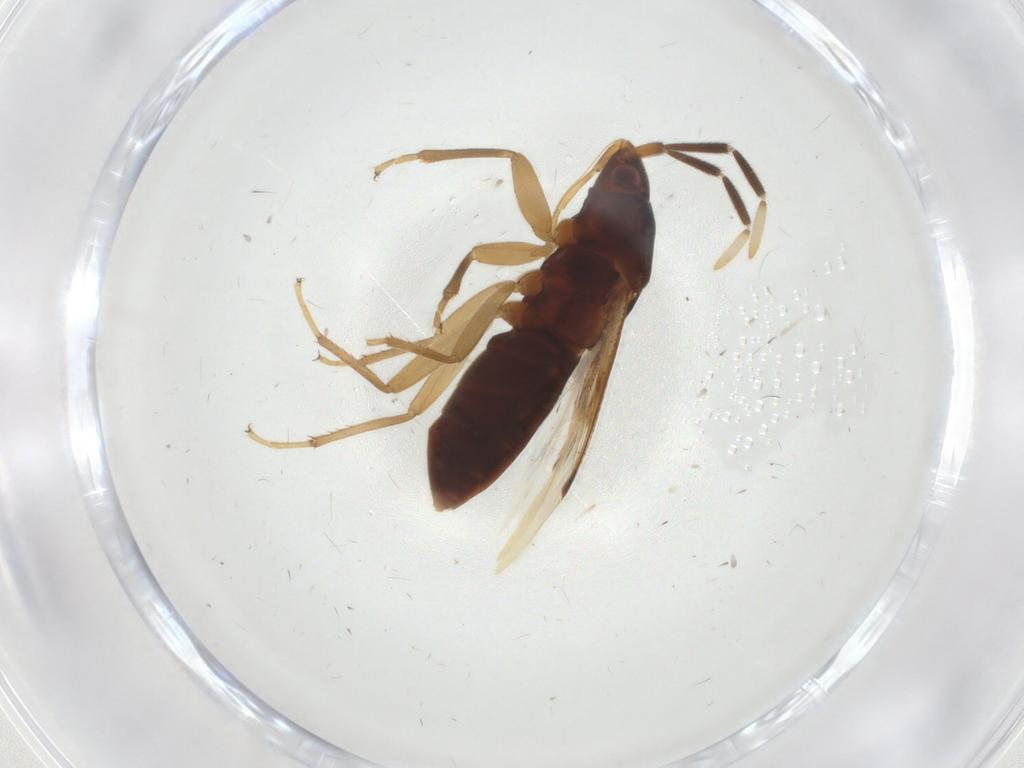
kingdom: Animalia
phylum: Arthropoda
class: Insecta
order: Hemiptera
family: Rhyparochromidae
